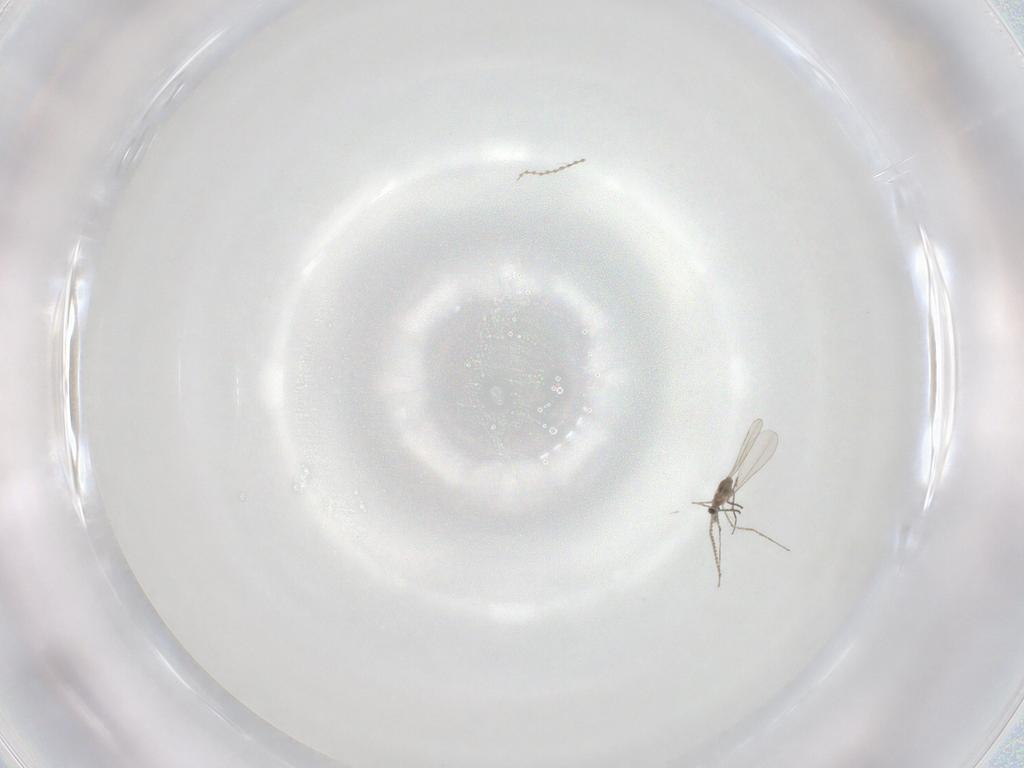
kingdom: Animalia
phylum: Arthropoda
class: Insecta
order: Diptera
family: Cecidomyiidae
